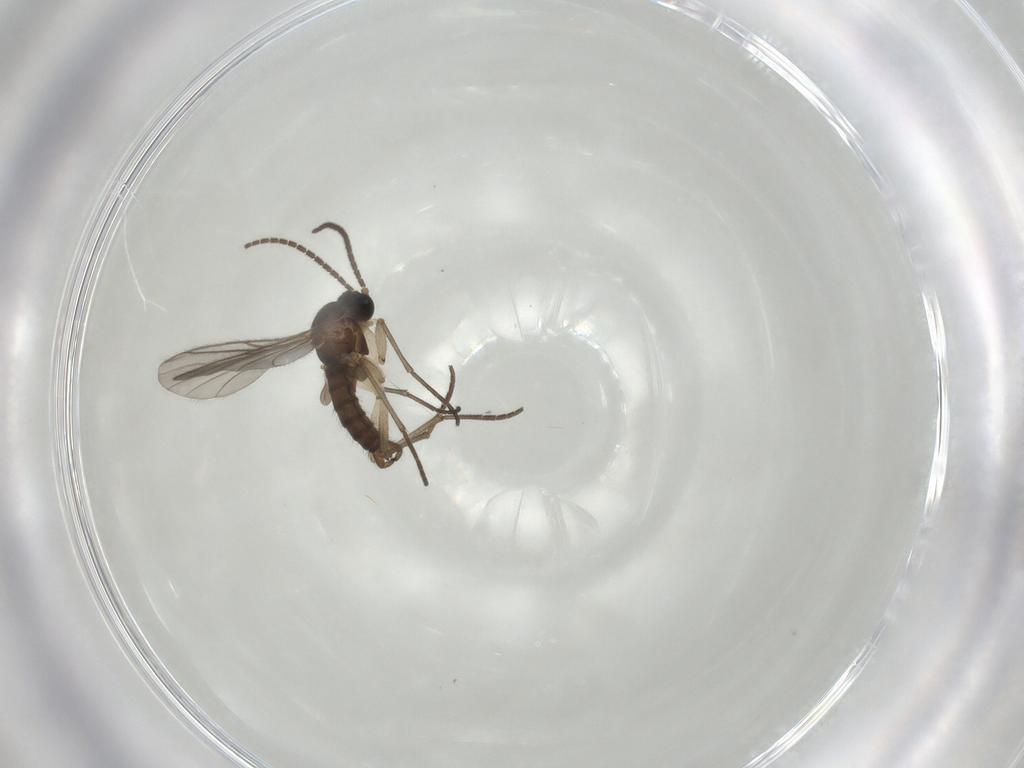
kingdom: Animalia
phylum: Arthropoda
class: Insecta
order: Diptera
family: Sciaridae
